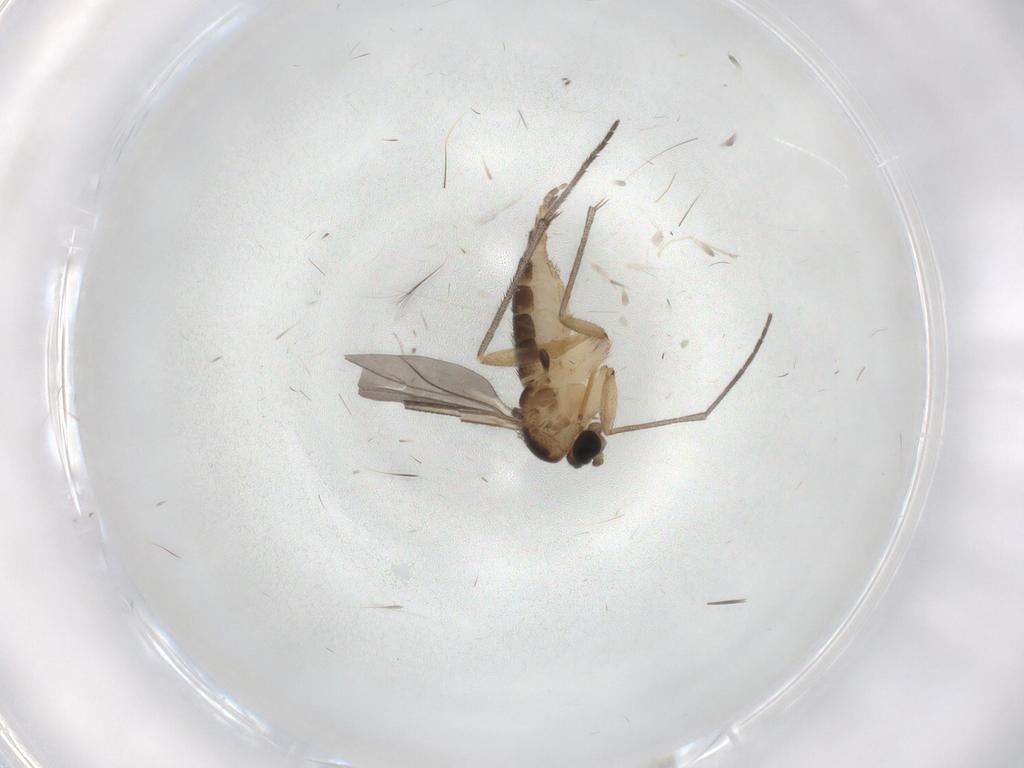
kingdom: Animalia
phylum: Arthropoda
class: Insecta
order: Diptera
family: Sciaridae
